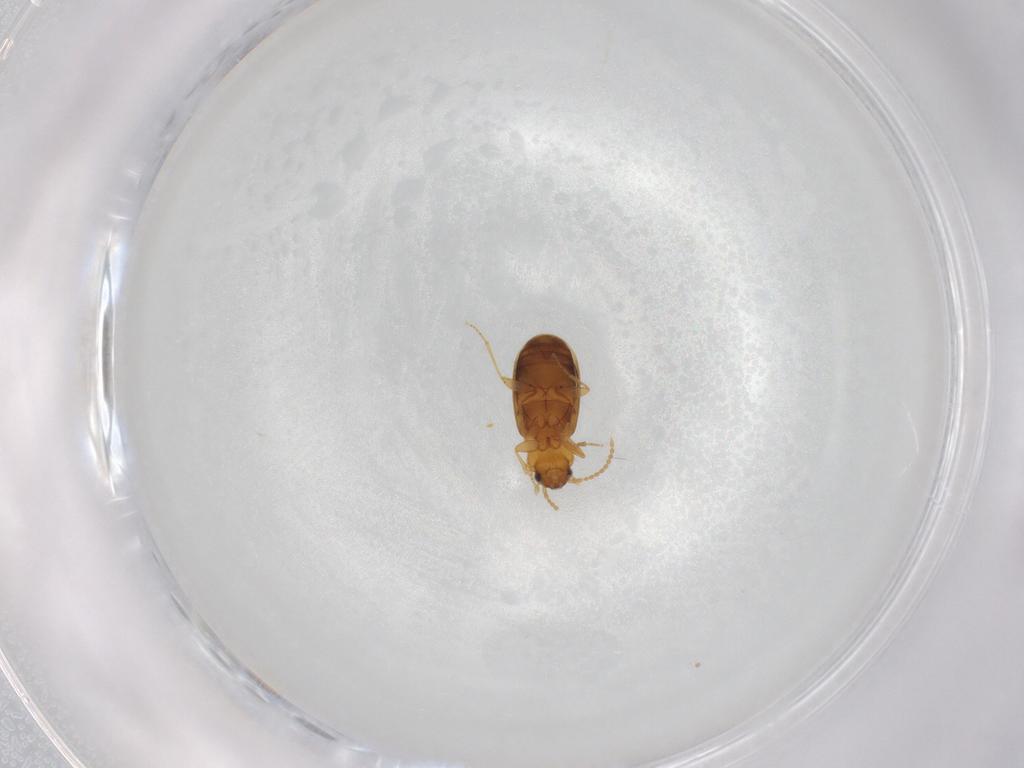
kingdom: Animalia
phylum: Arthropoda
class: Insecta
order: Coleoptera
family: Carabidae
